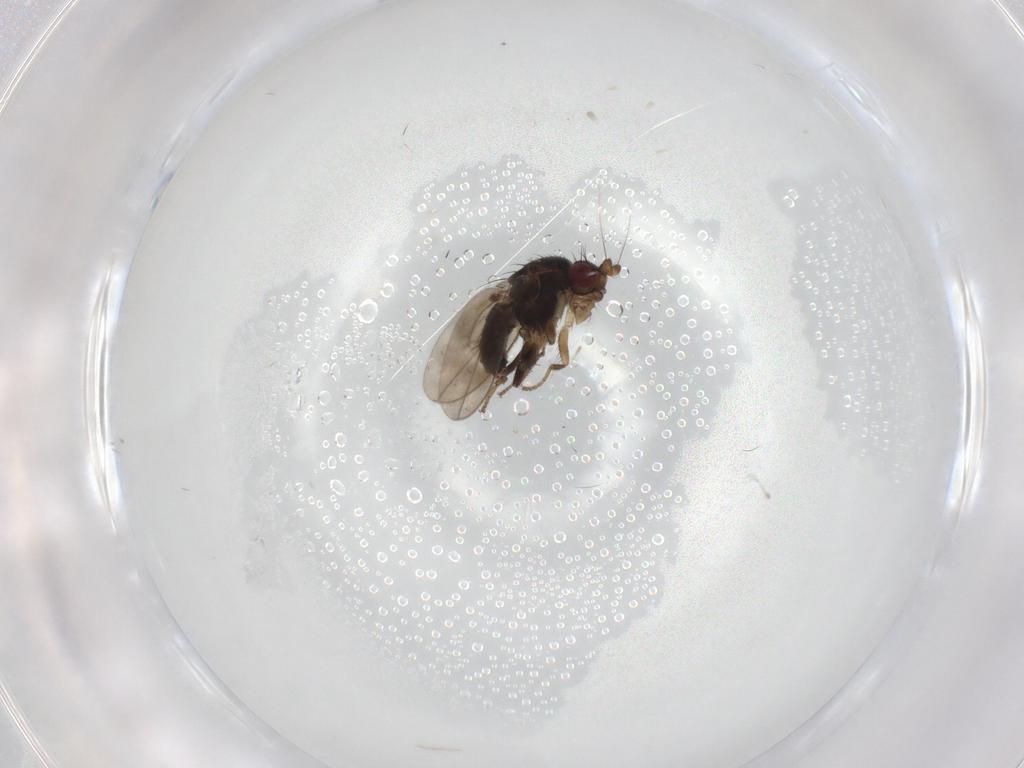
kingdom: Animalia
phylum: Arthropoda
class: Insecta
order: Diptera
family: Sphaeroceridae
